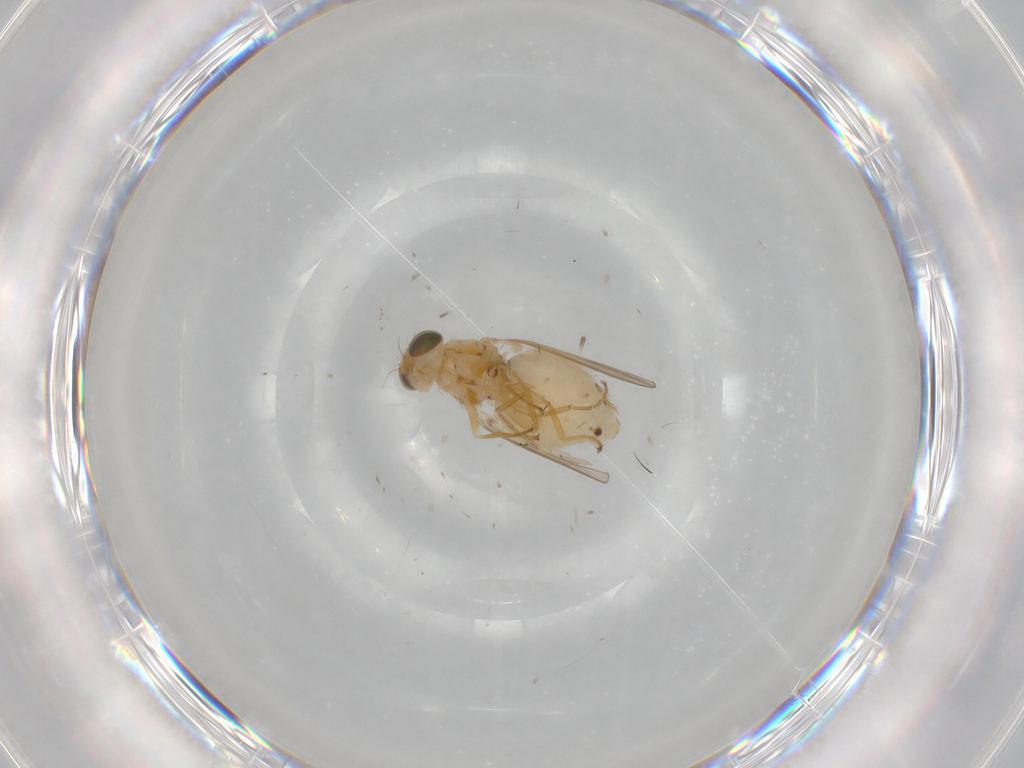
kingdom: Animalia
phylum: Arthropoda
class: Insecta
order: Diptera
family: Chyromyidae
